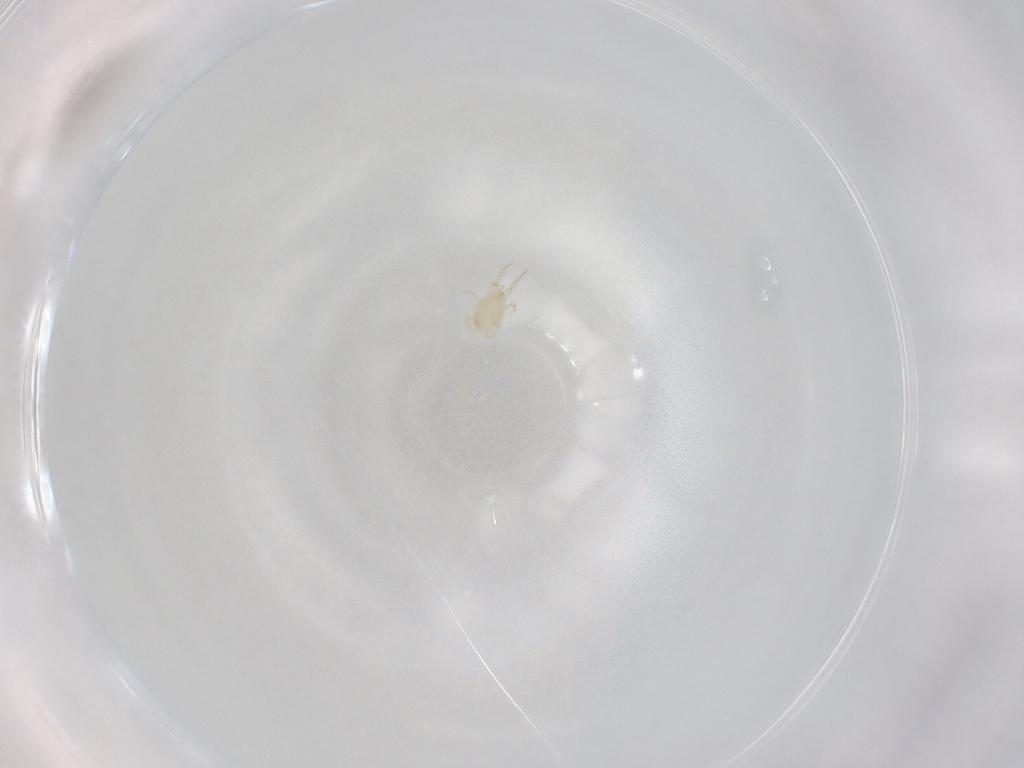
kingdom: Animalia
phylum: Arthropoda
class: Arachnida
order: Mesostigmata
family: Phytoseiidae
